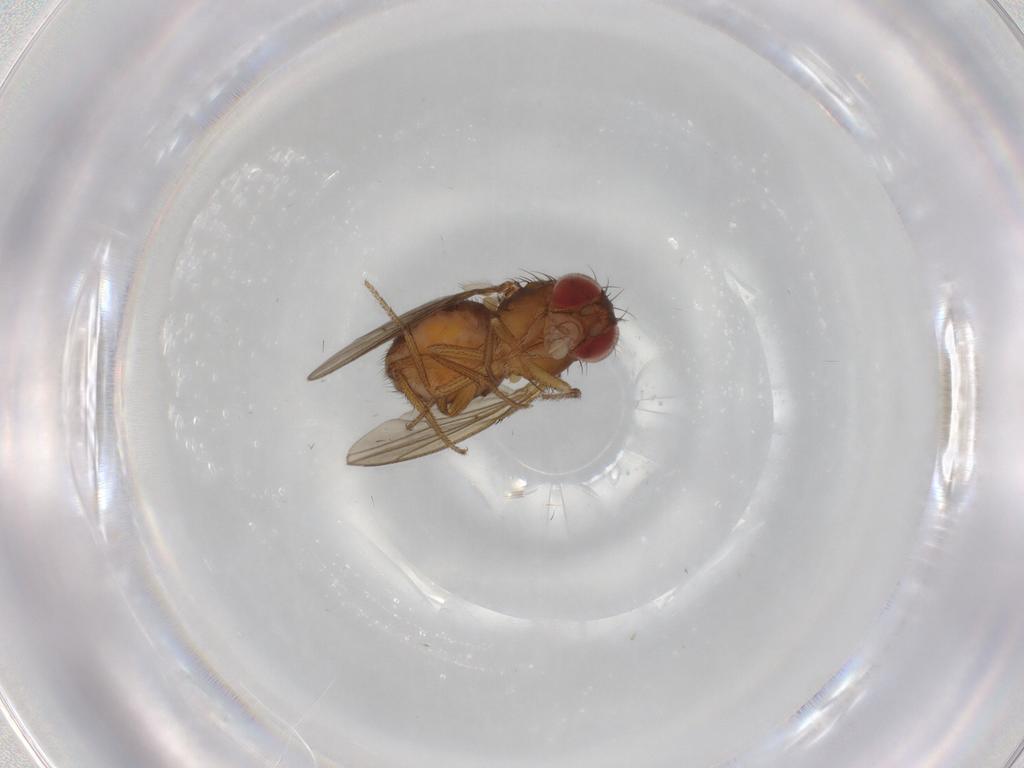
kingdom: Animalia
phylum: Arthropoda
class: Insecta
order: Diptera
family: Drosophilidae
